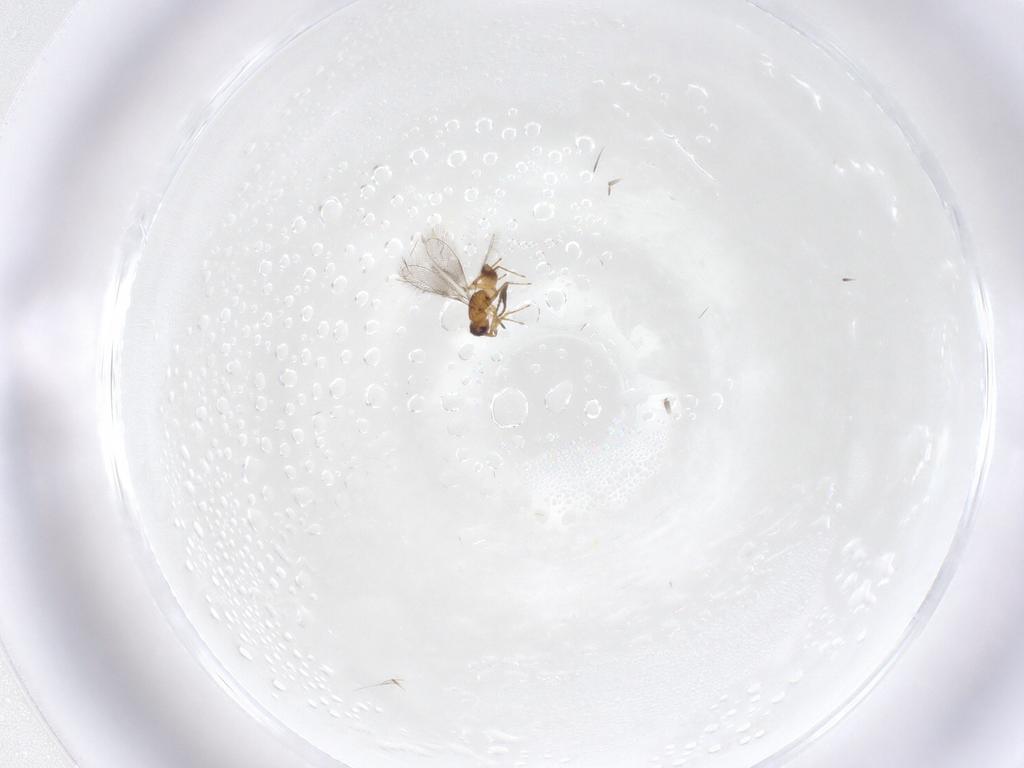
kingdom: Animalia
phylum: Arthropoda
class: Insecta
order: Hymenoptera
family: Mymaridae
